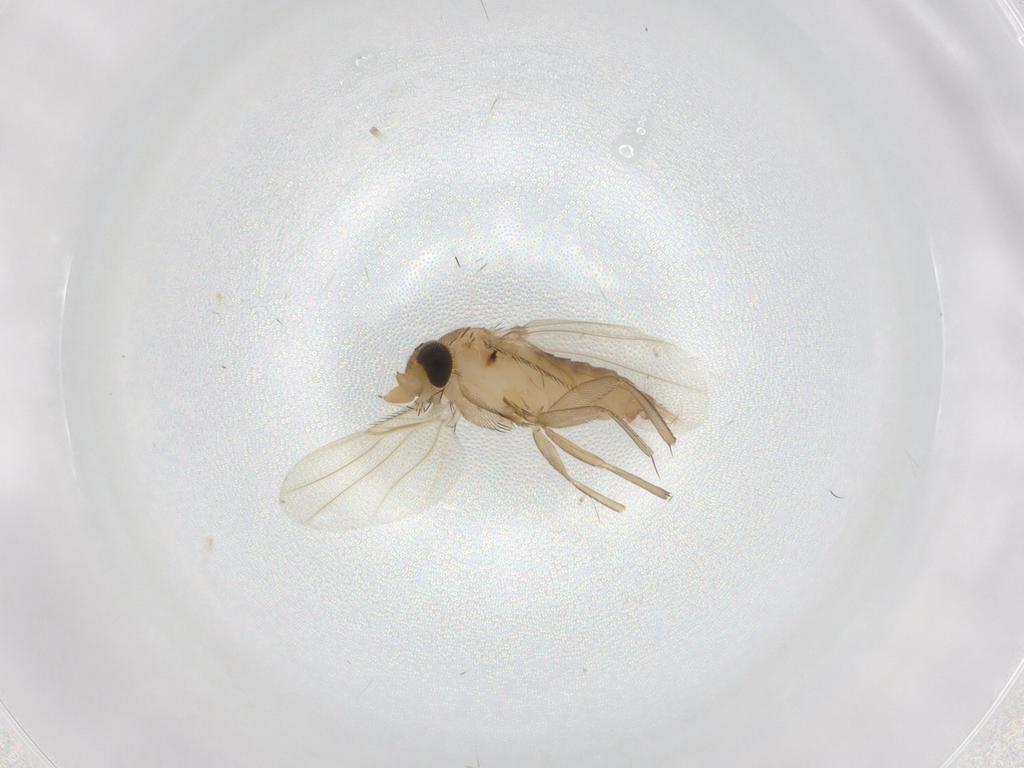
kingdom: Animalia
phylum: Arthropoda
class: Insecta
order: Diptera
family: Phoridae
